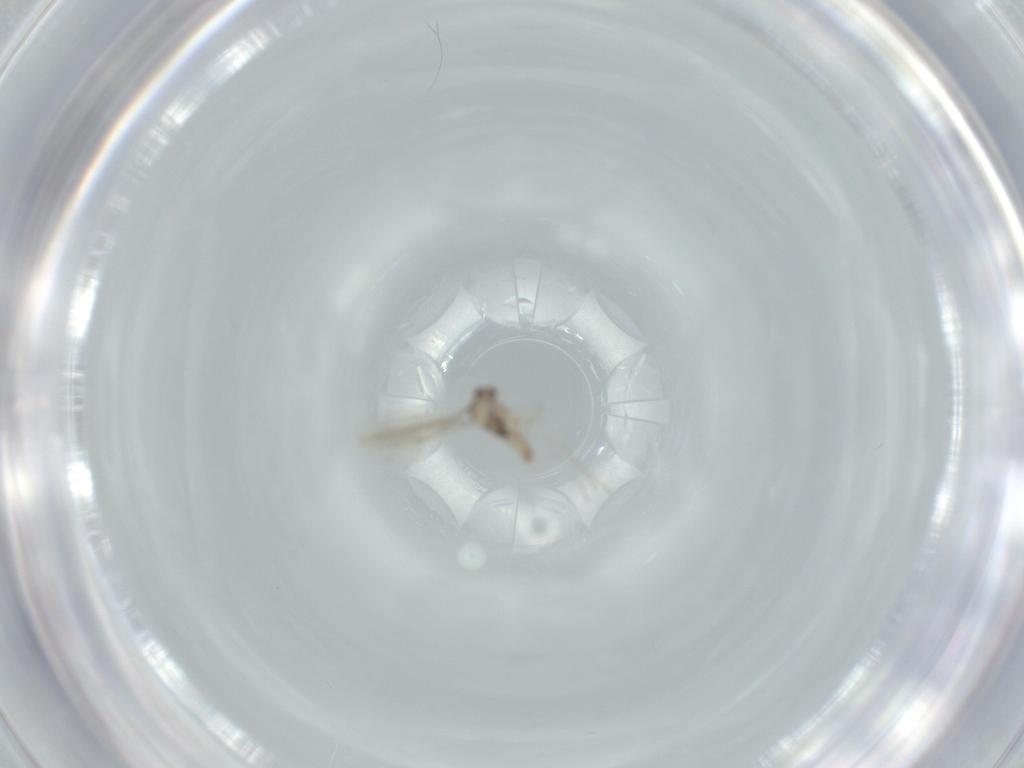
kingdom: Animalia
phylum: Arthropoda
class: Insecta
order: Diptera
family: Cecidomyiidae
